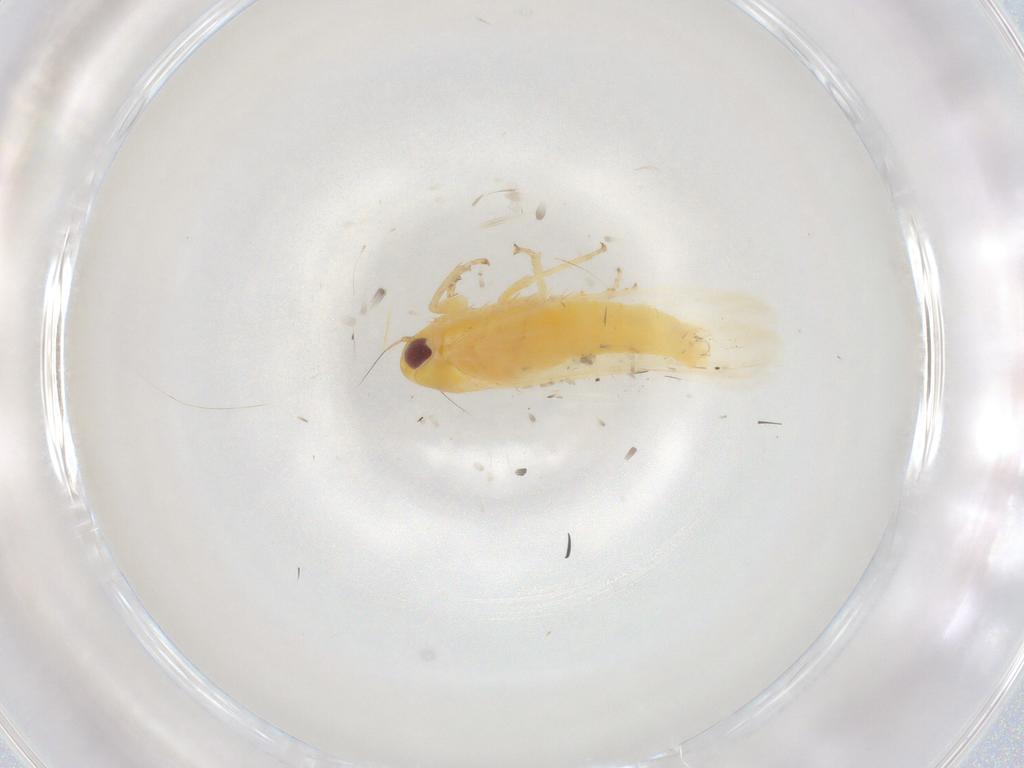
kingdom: Animalia
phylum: Arthropoda
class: Insecta
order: Hemiptera
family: Cicadellidae
